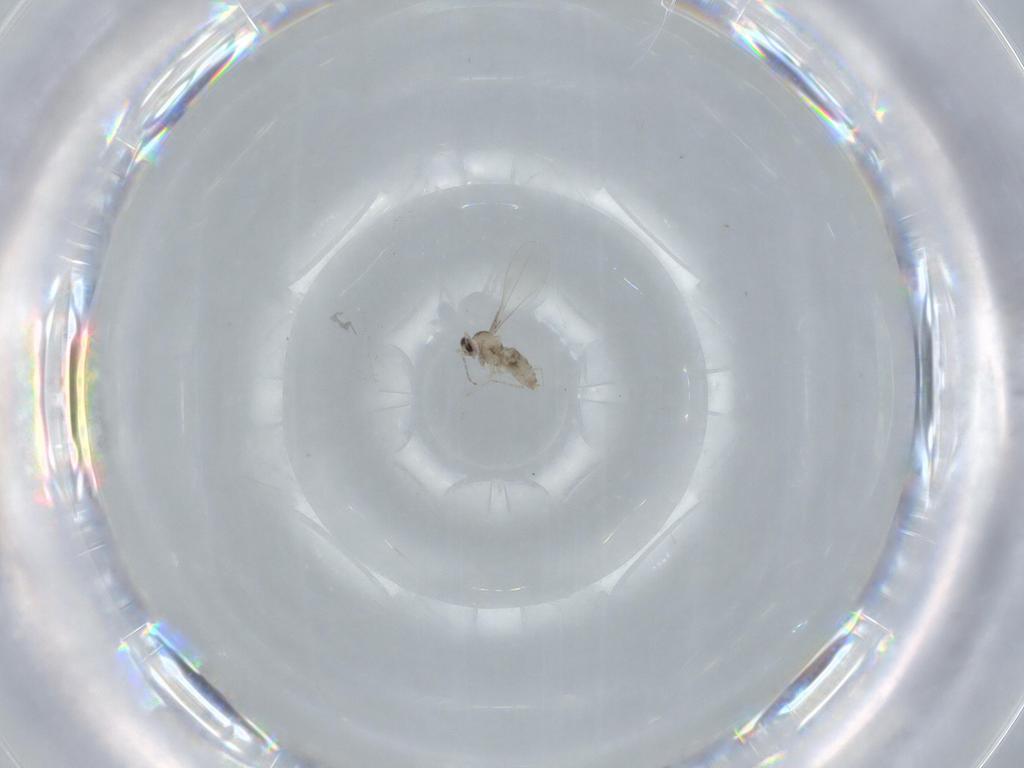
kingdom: Animalia
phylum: Arthropoda
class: Insecta
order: Diptera
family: Cecidomyiidae
